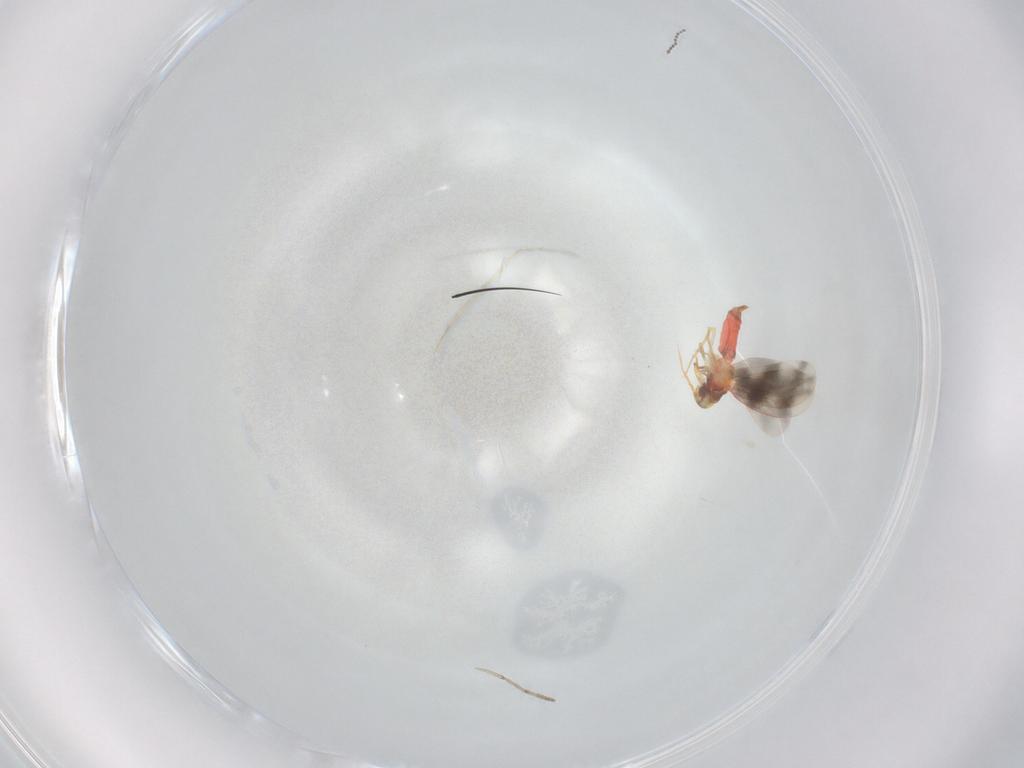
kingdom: Animalia
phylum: Arthropoda
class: Insecta
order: Hemiptera
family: Aleyrodidae
